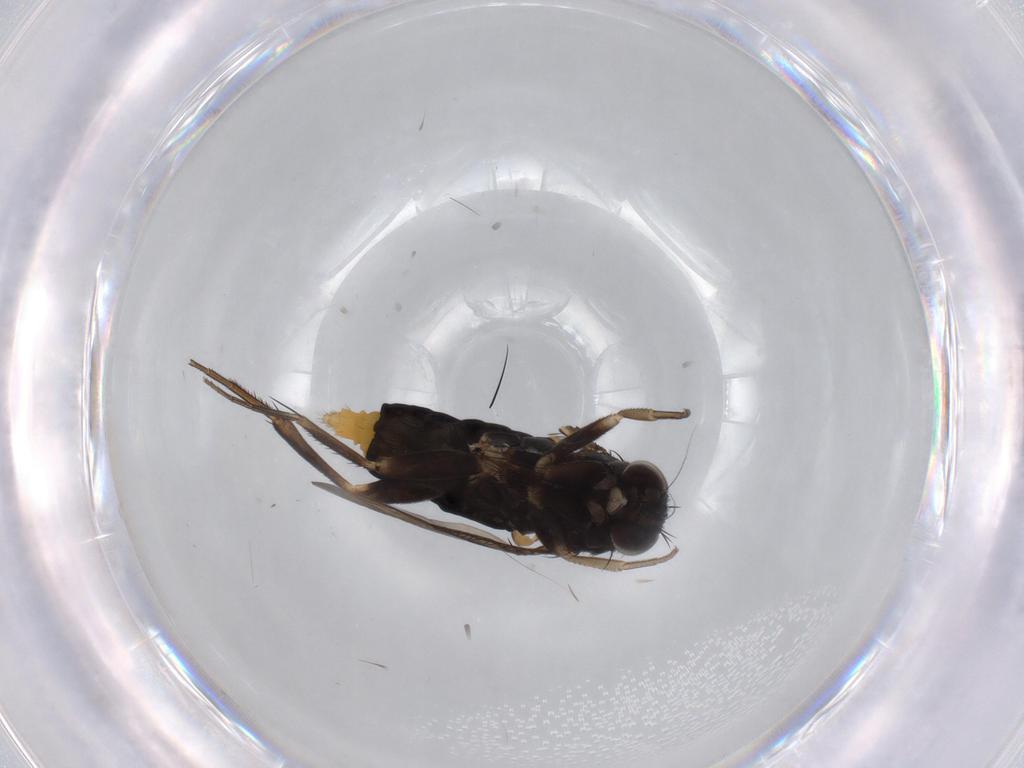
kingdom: Animalia
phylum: Arthropoda
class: Insecta
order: Diptera
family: Phoridae
